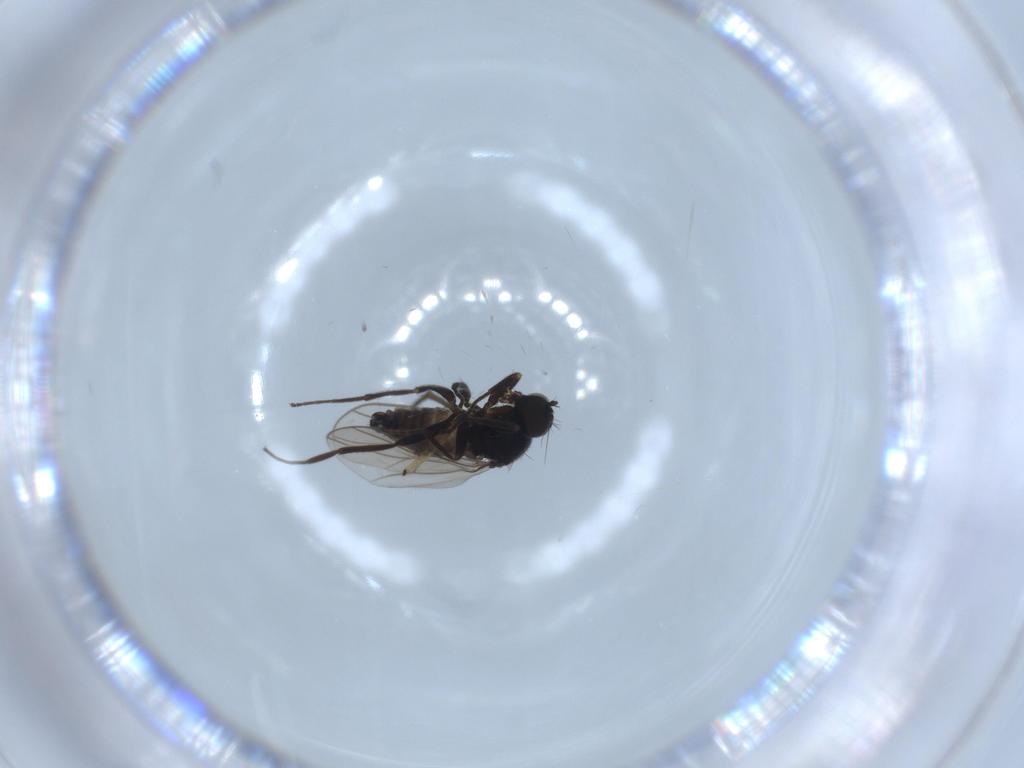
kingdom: Animalia
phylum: Arthropoda
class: Insecta
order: Diptera
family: Hybotidae
